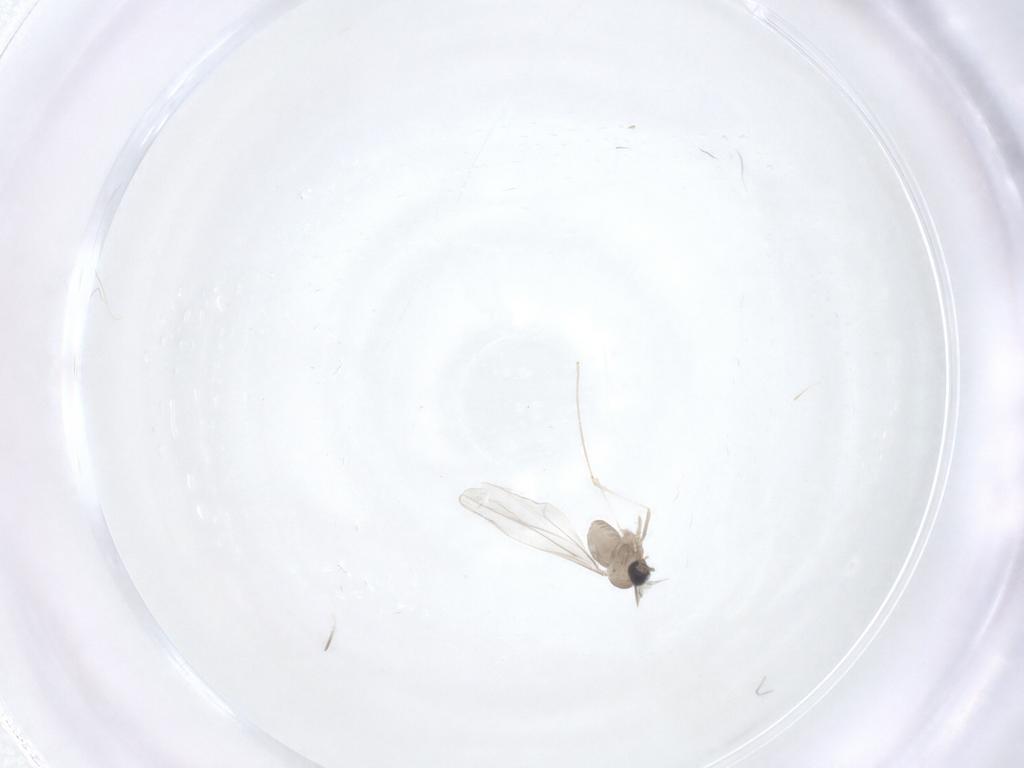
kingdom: Animalia
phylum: Arthropoda
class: Insecta
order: Diptera
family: Cecidomyiidae
